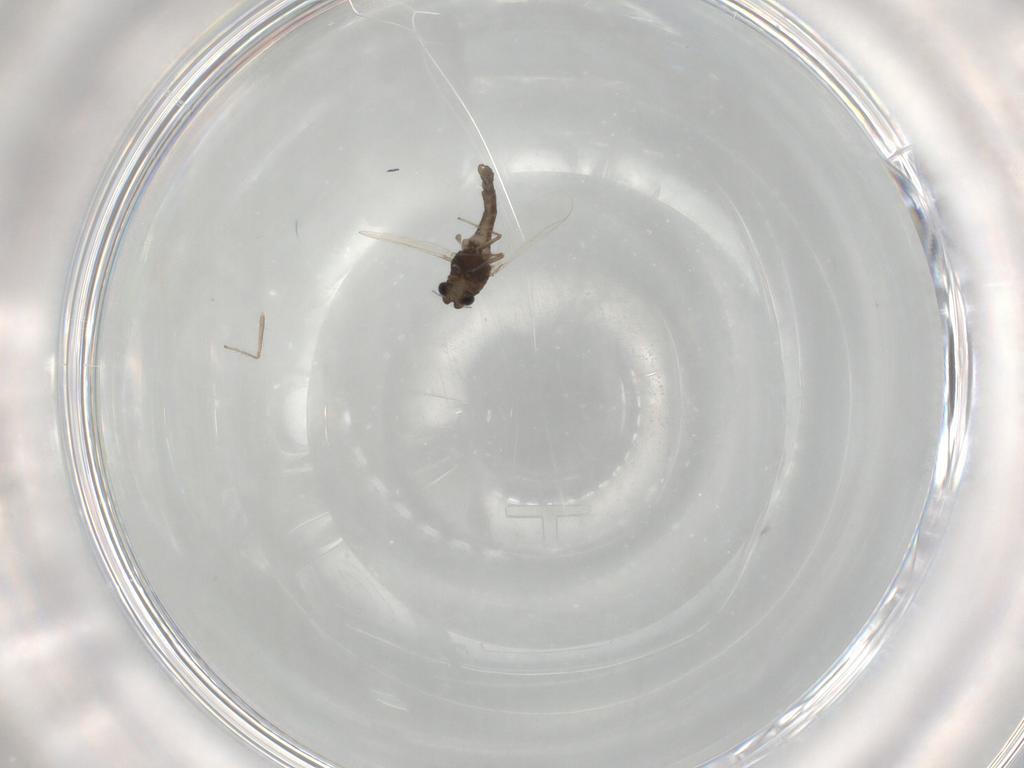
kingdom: Animalia
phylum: Arthropoda
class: Insecta
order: Diptera
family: Chironomidae
